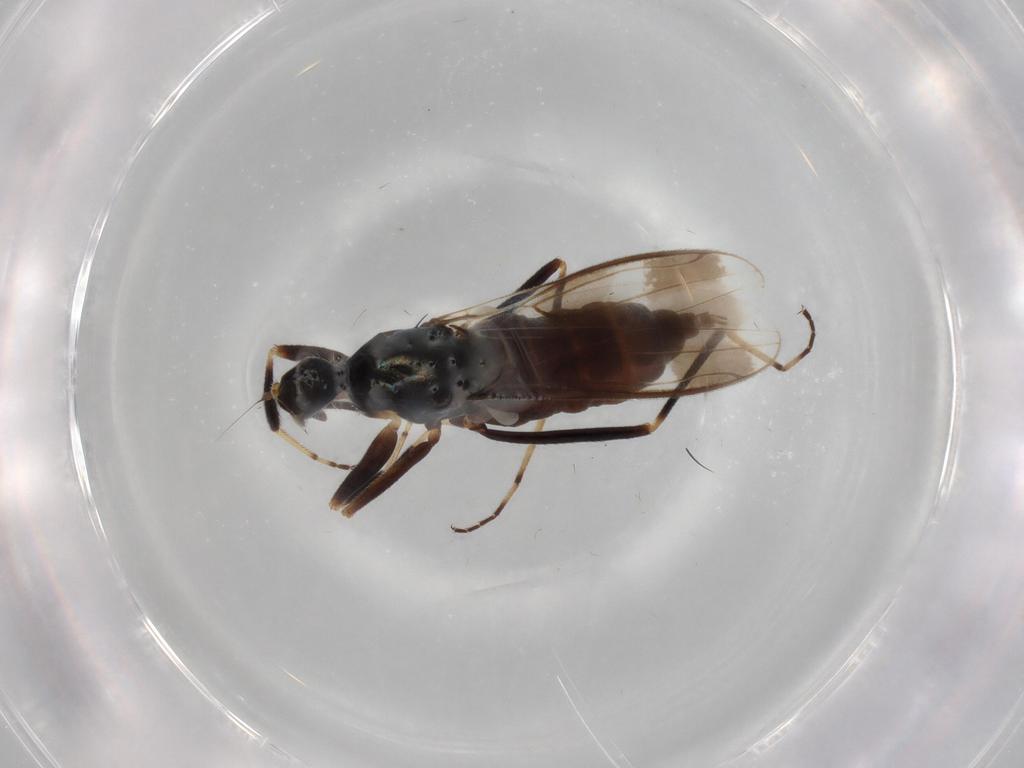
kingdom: Animalia
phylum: Arthropoda
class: Insecta
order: Diptera
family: Hybotidae
